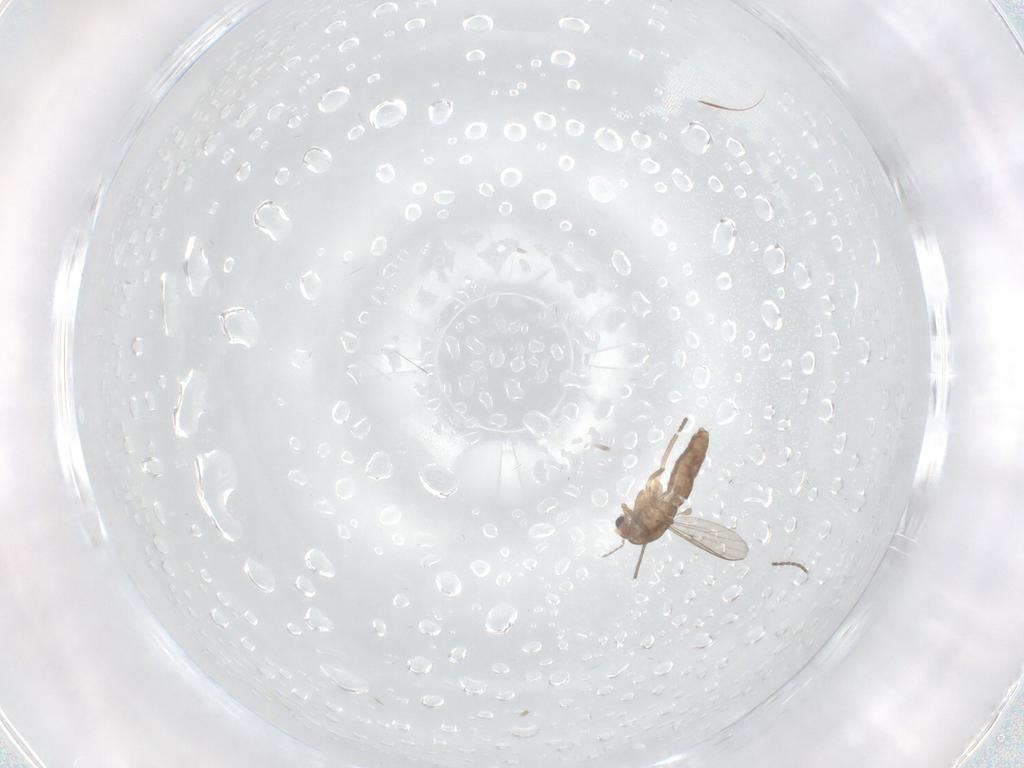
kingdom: Animalia
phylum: Arthropoda
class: Insecta
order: Diptera
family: Chironomidae
